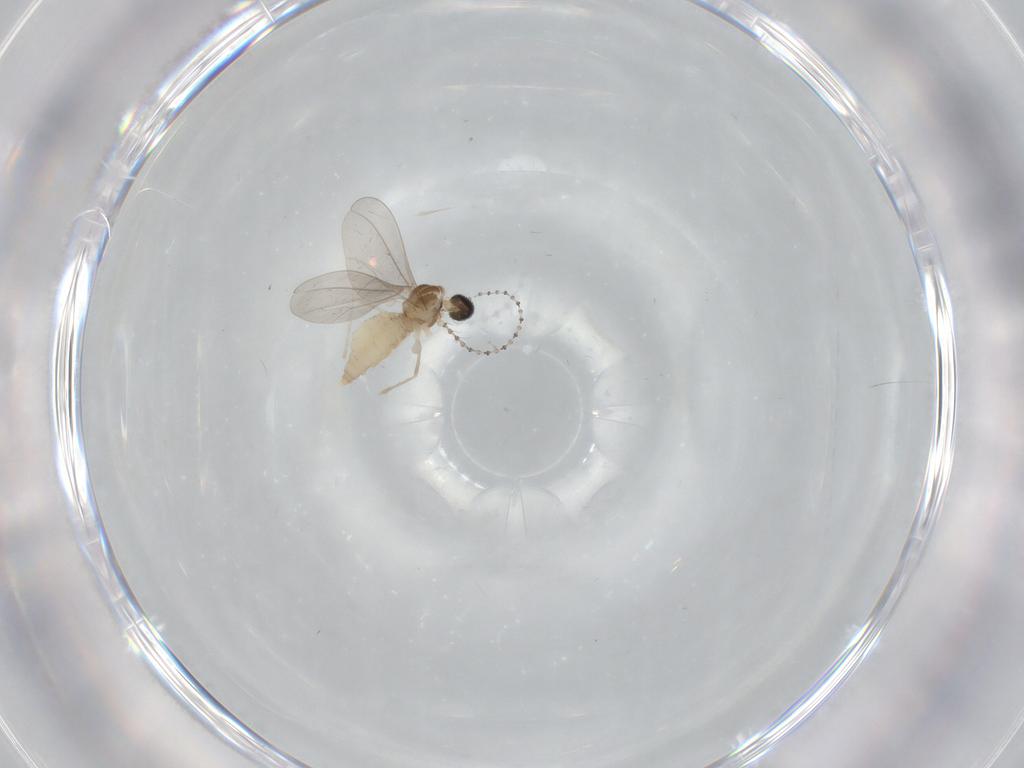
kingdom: Animalia
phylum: Arthropoda
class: Insecta
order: Diptera
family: Cecidomyiidae
